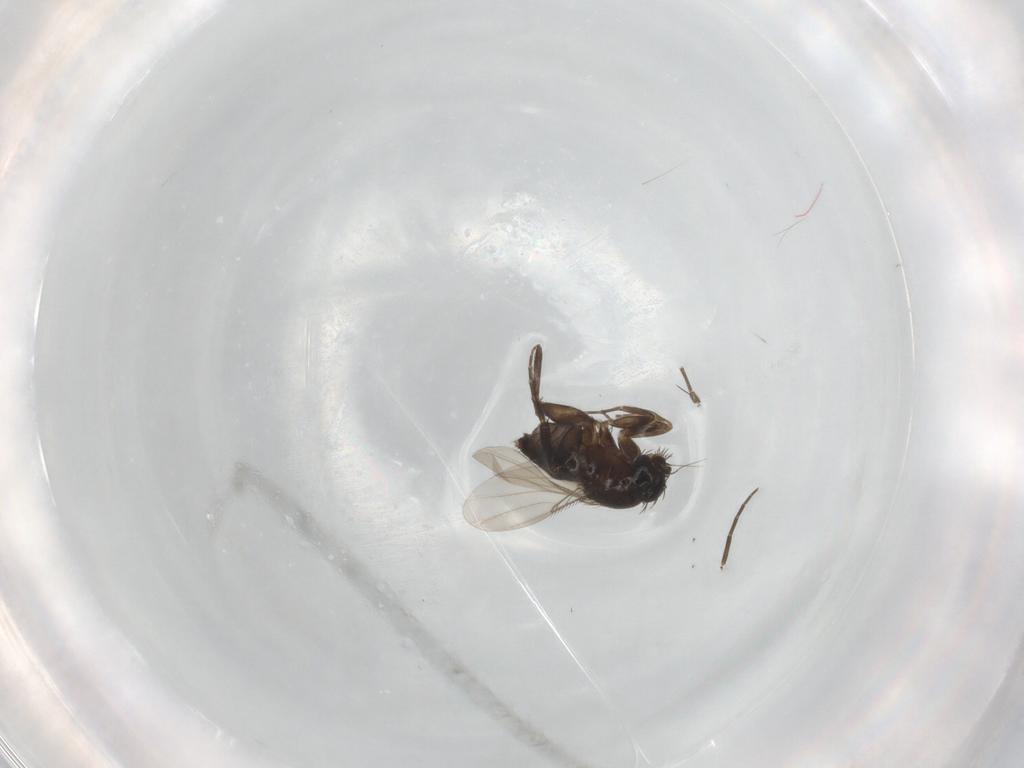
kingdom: Animalia
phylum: Arthropoda
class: Insecta
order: Diptera
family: Phoridae
